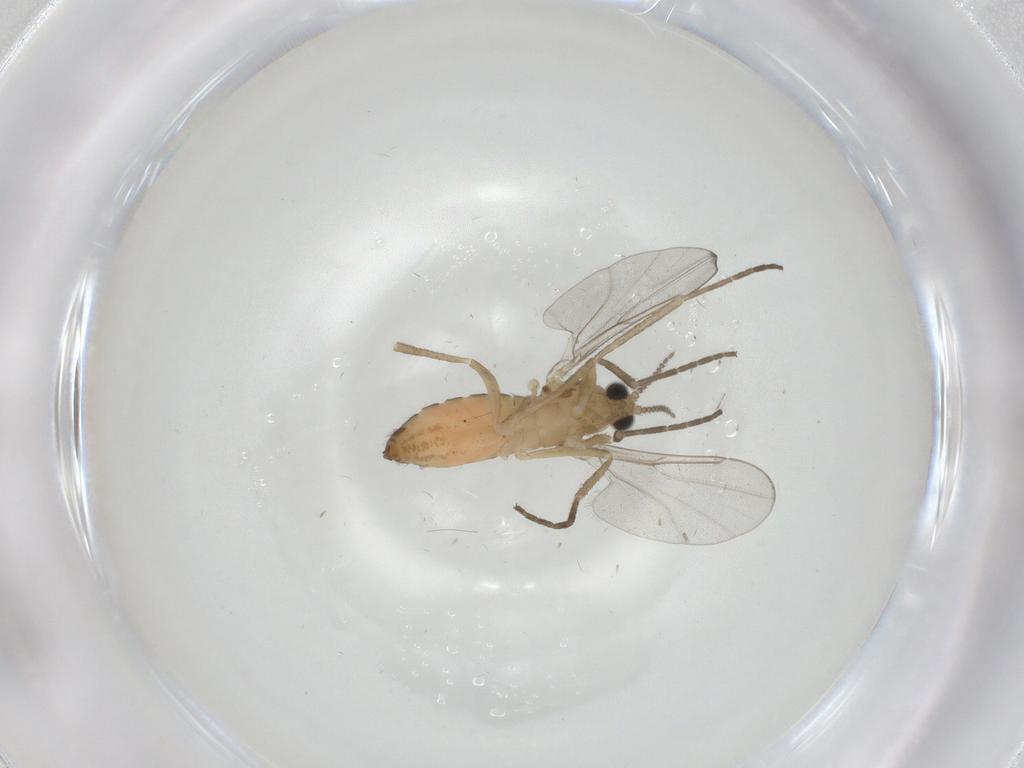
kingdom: Animalia
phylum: Arthropoda
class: Insecta
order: Diptera
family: Cecidomyiidae
